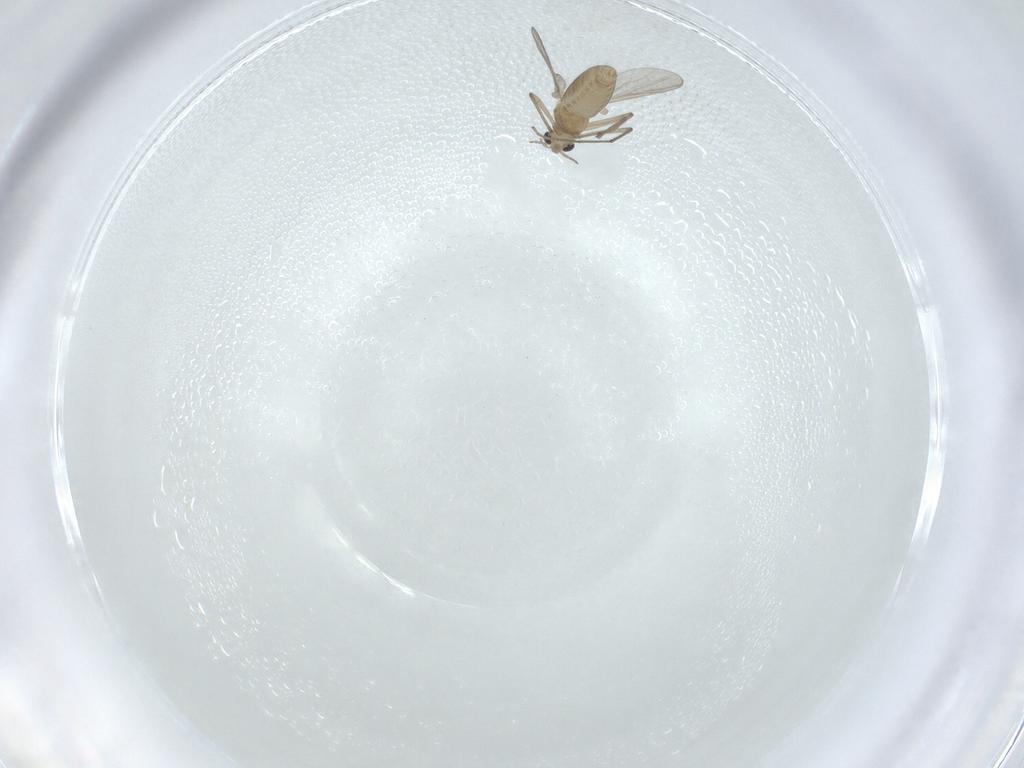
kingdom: Animalia
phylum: Arthropoda
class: Insecta
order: Diptera
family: Chironomidae
